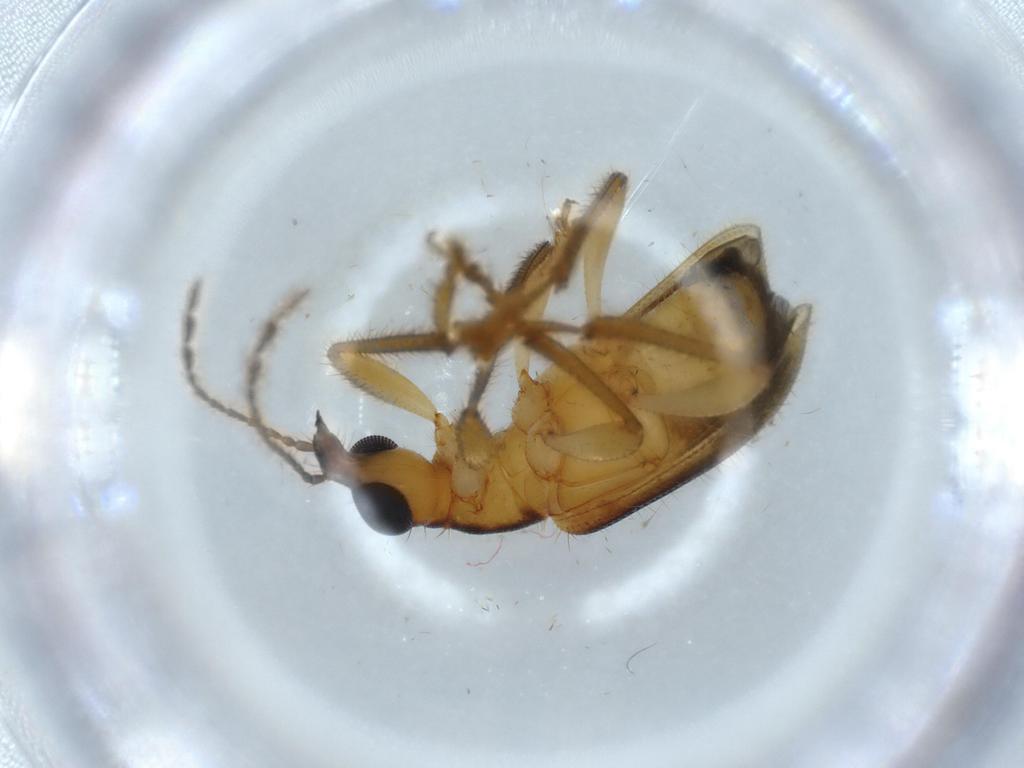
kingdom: Animalia
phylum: Arthropoda
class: Insecta
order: Coleoptera
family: Attelabidae
